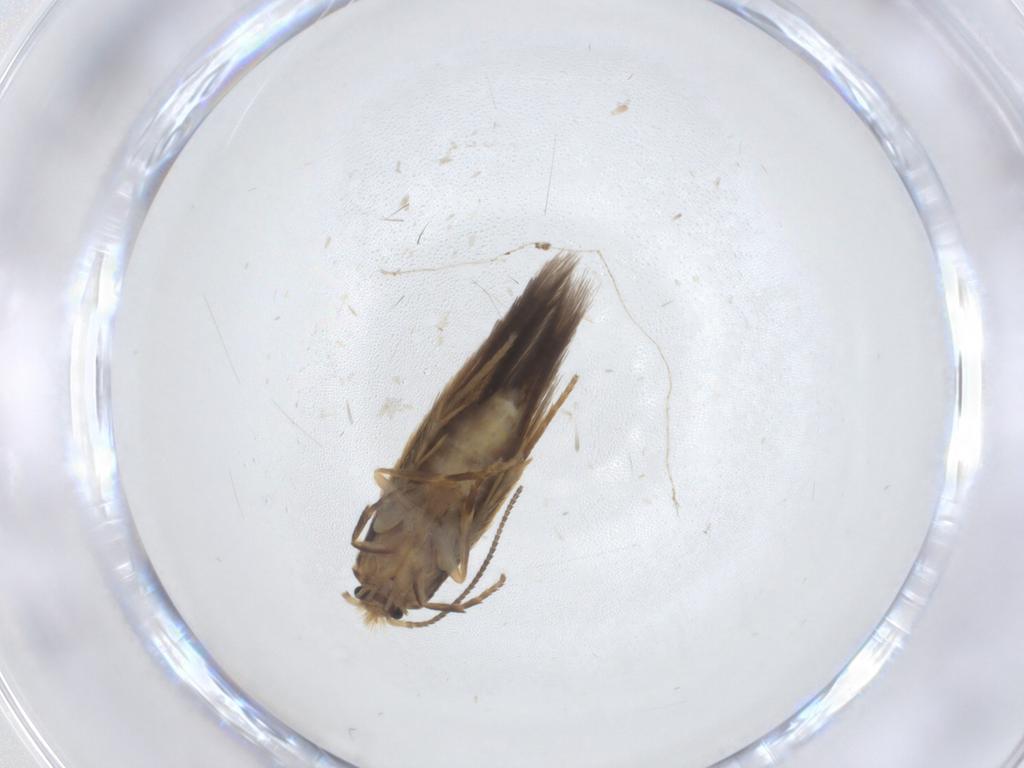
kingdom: Animalia
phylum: Arthropoda
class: Insecta
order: Lepidoptera
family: Nepticulidae
